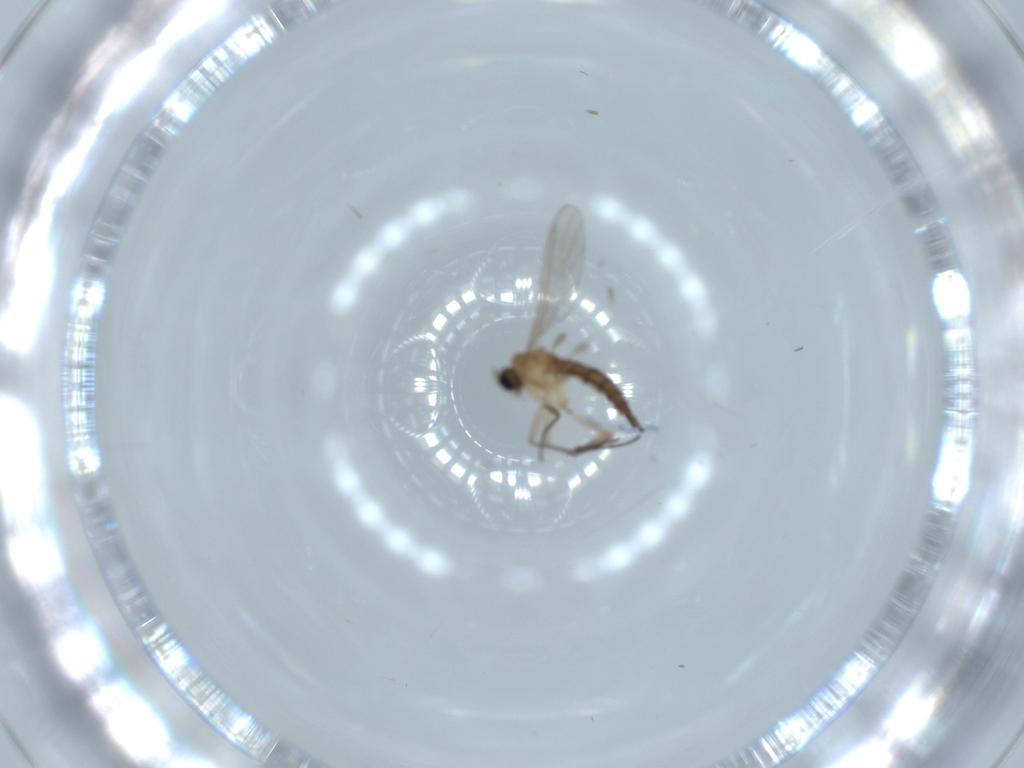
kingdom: Animalia
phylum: Arthropoda
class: Insecta
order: Diptera
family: Sciaridae
